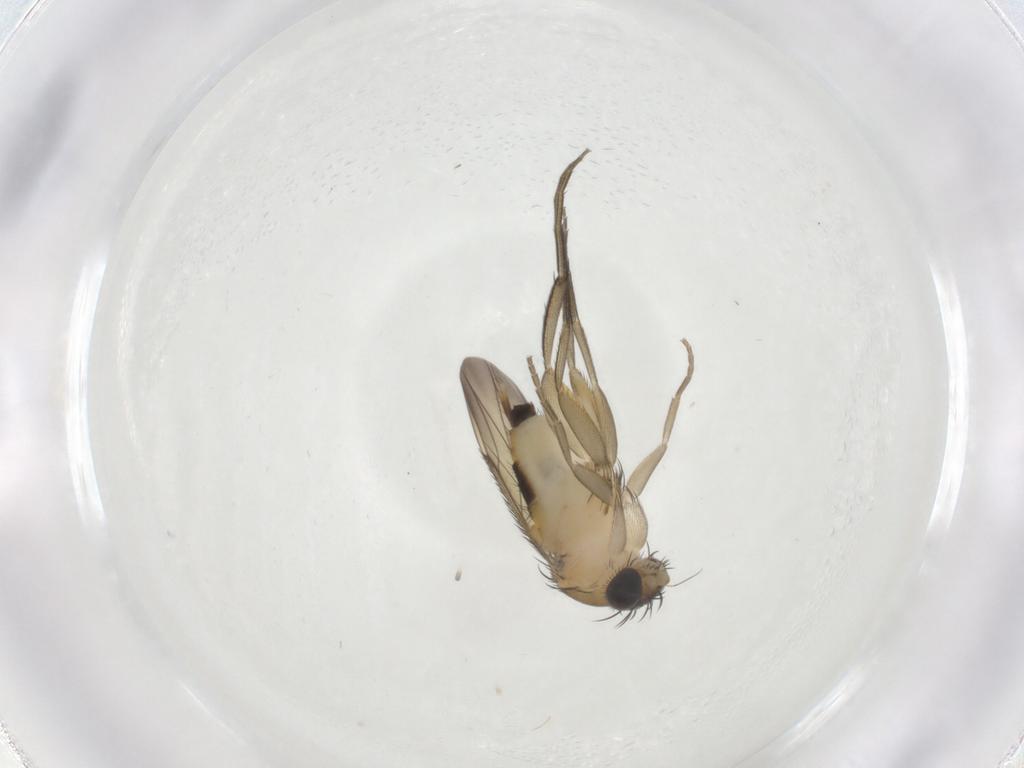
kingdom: Animalia
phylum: Arthropoda
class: Insecta
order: Diptera
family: Phoridae
